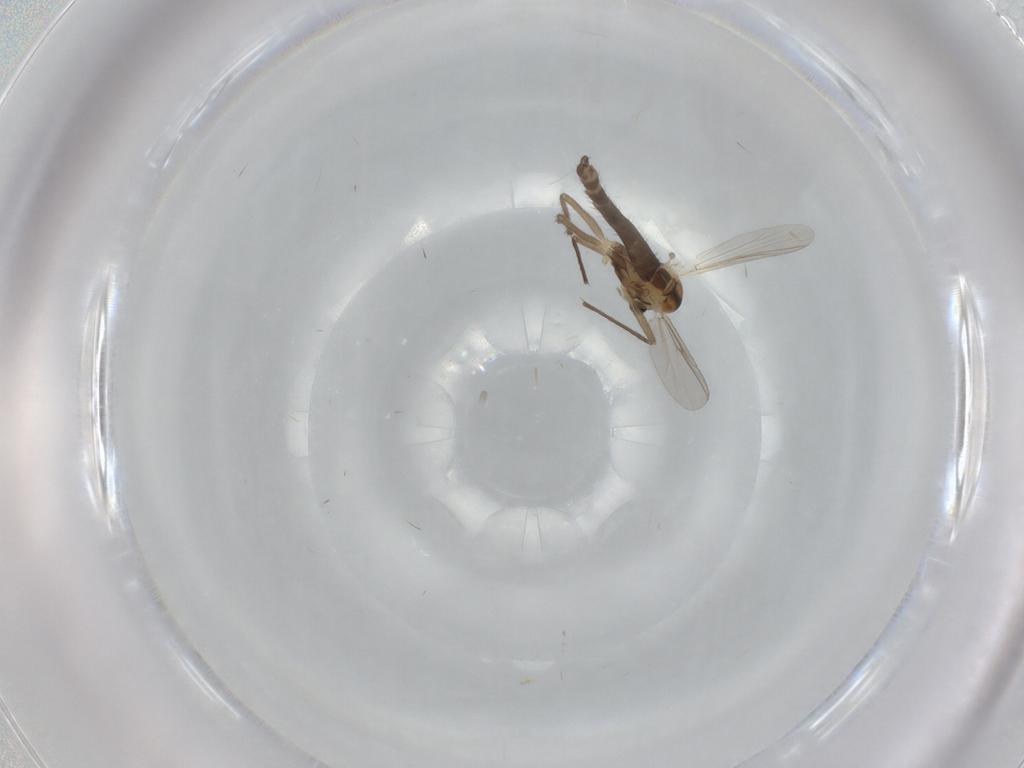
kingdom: Animalia
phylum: Arthropoda
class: Insecta
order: Diptera
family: Chironomidae
